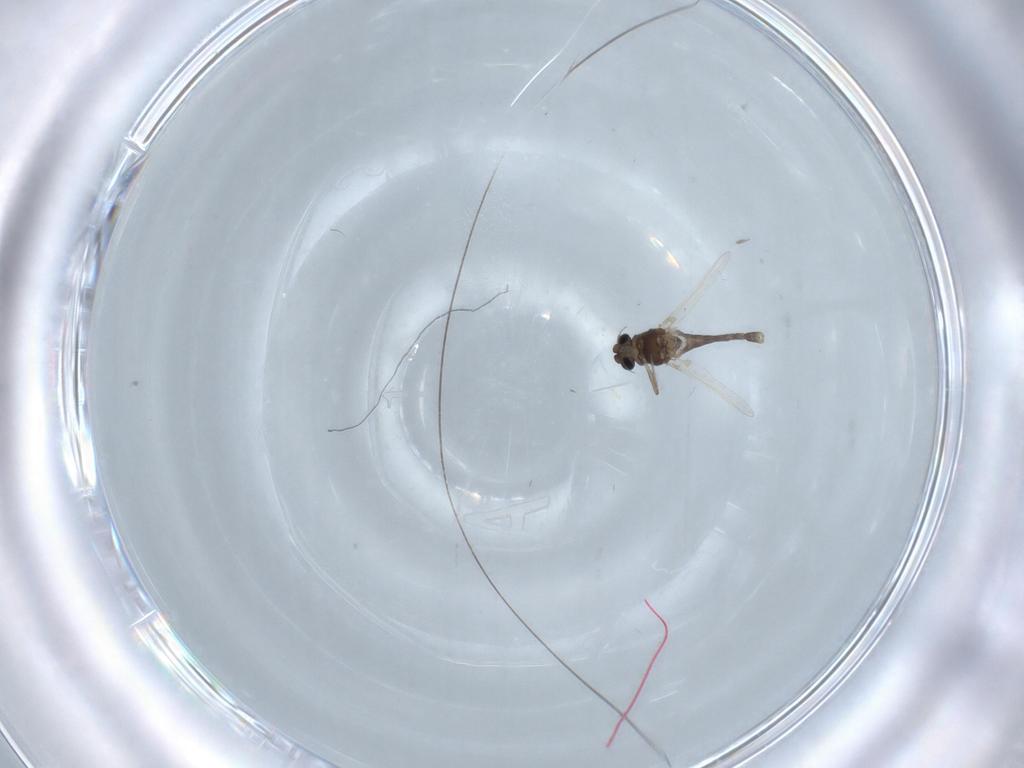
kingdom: Animalia
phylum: Arthropoda
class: Insecta
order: Diptera
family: Chironomidae
